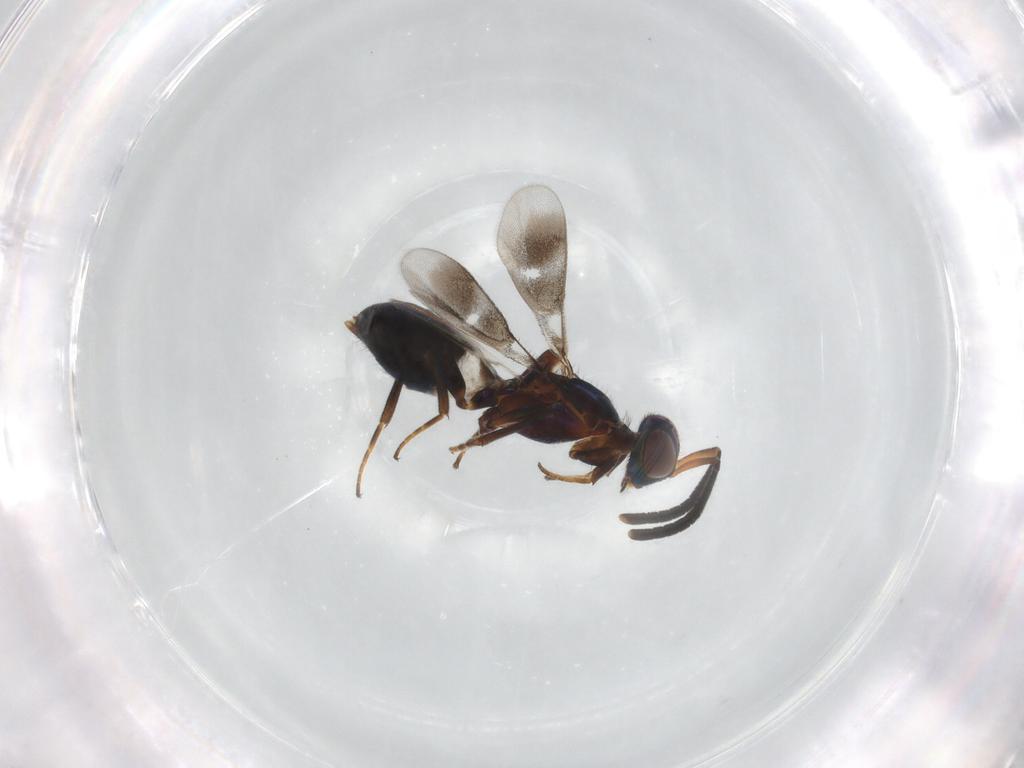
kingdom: Animalia
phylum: Arthropoda
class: Insecta
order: Hymenoptera
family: Eupelmidae
